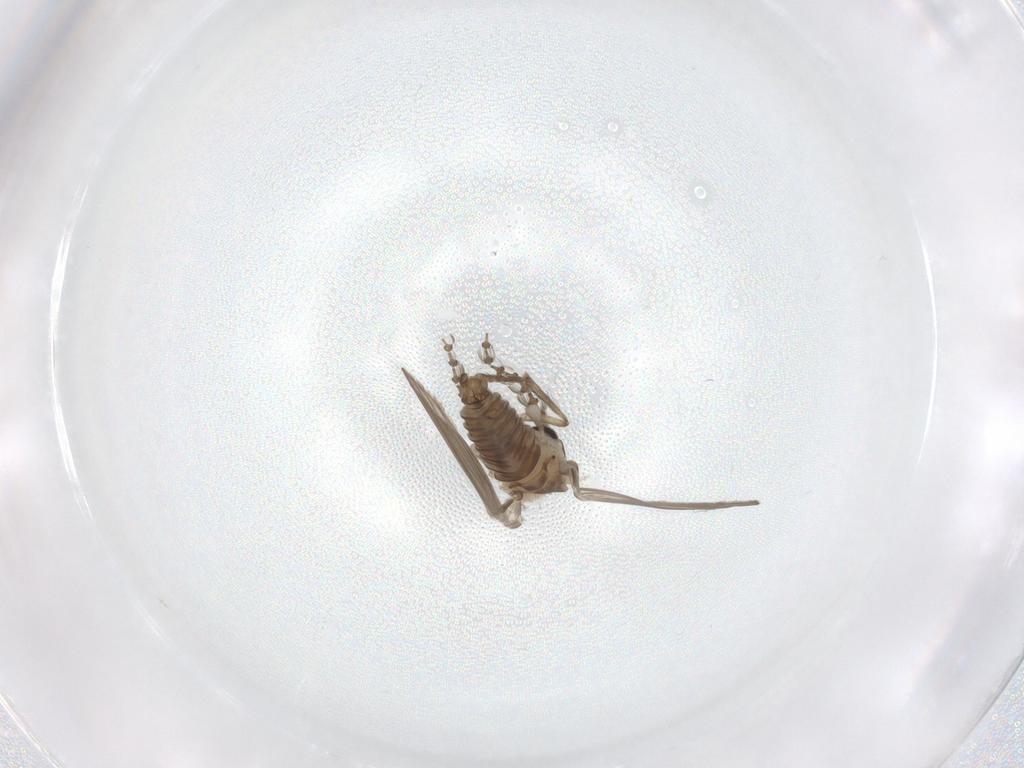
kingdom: Animalia
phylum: Arthropoda
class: Insecta
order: Diptera
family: Psychodidae
